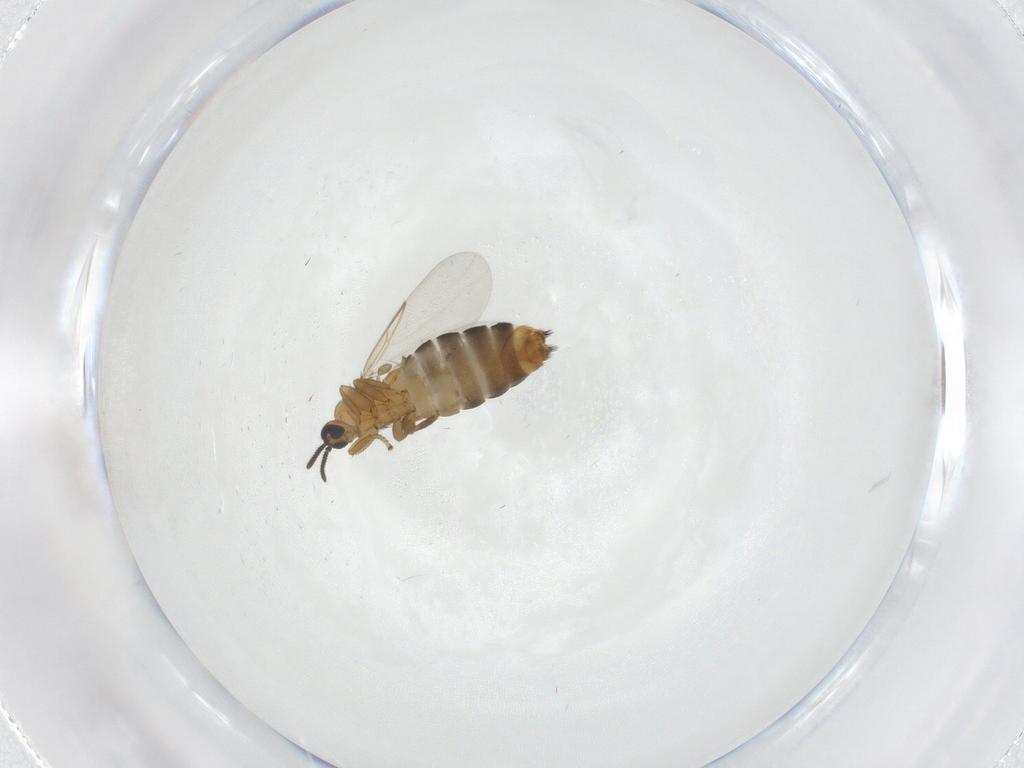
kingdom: Animalia
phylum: Arthropoda
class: Insecta
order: Diptera
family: Scatopsidae
